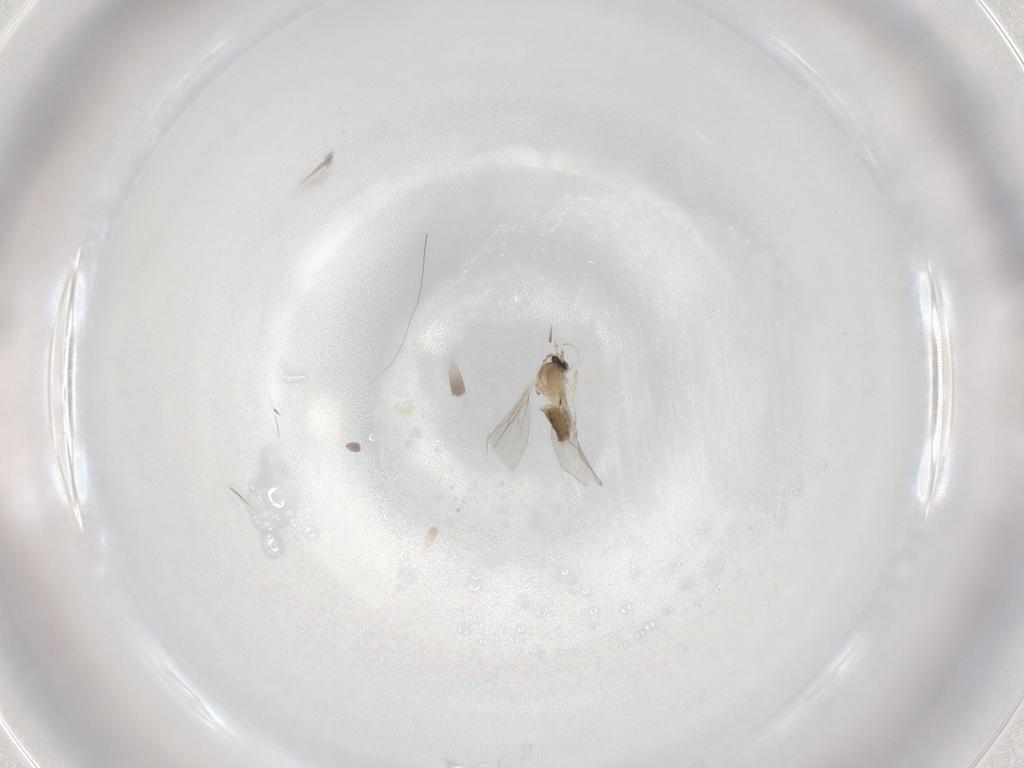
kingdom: Animalia
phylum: Arthropoda
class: Insecta
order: Diptera
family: Cecidomyiidae
